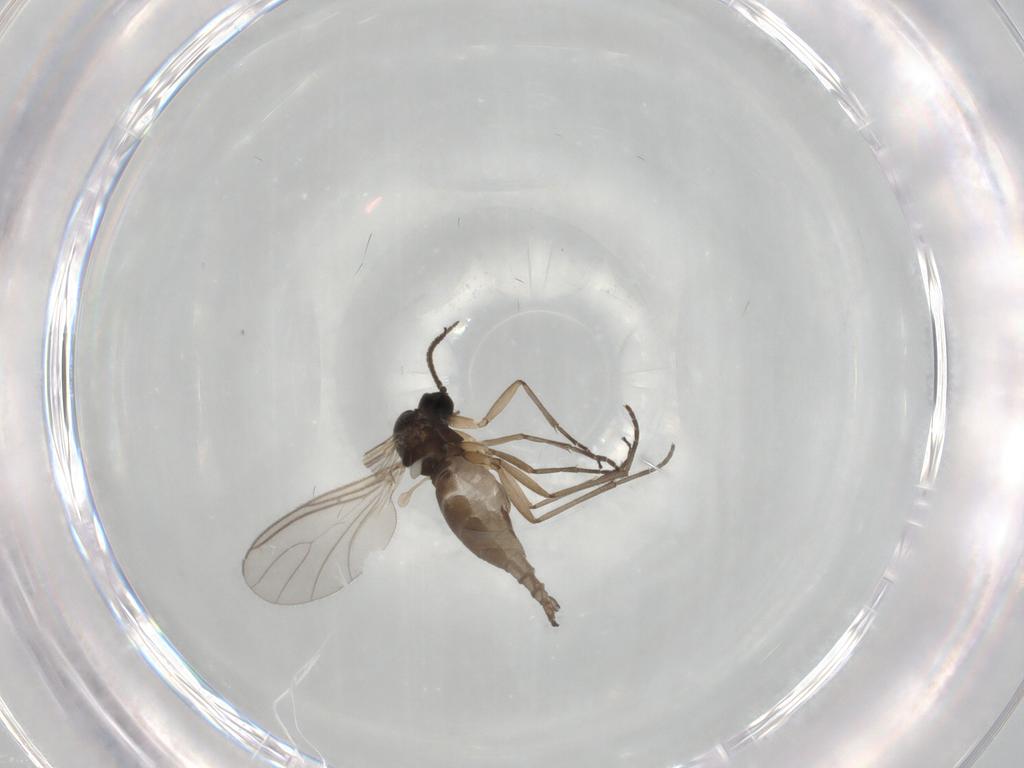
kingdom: Animalia
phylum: Arthropoda
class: Insecta
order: Diptera
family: Sciaridae
